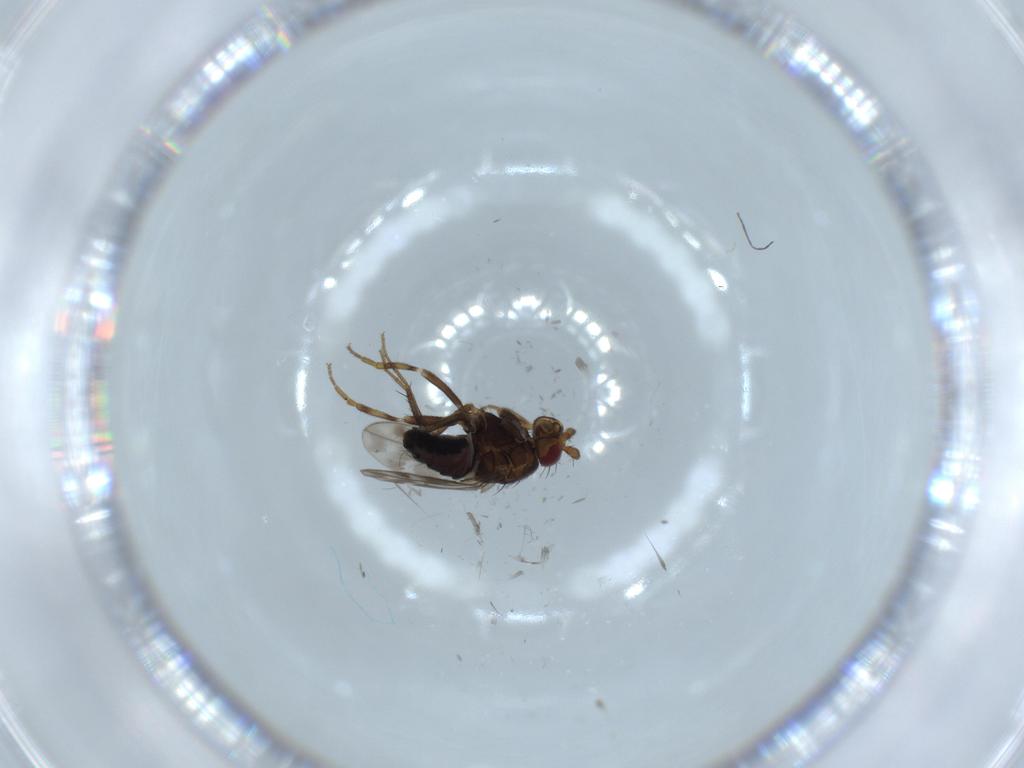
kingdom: Animalia
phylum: Arthropoda
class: Insecta
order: Diptera
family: Sphaeroceridae
